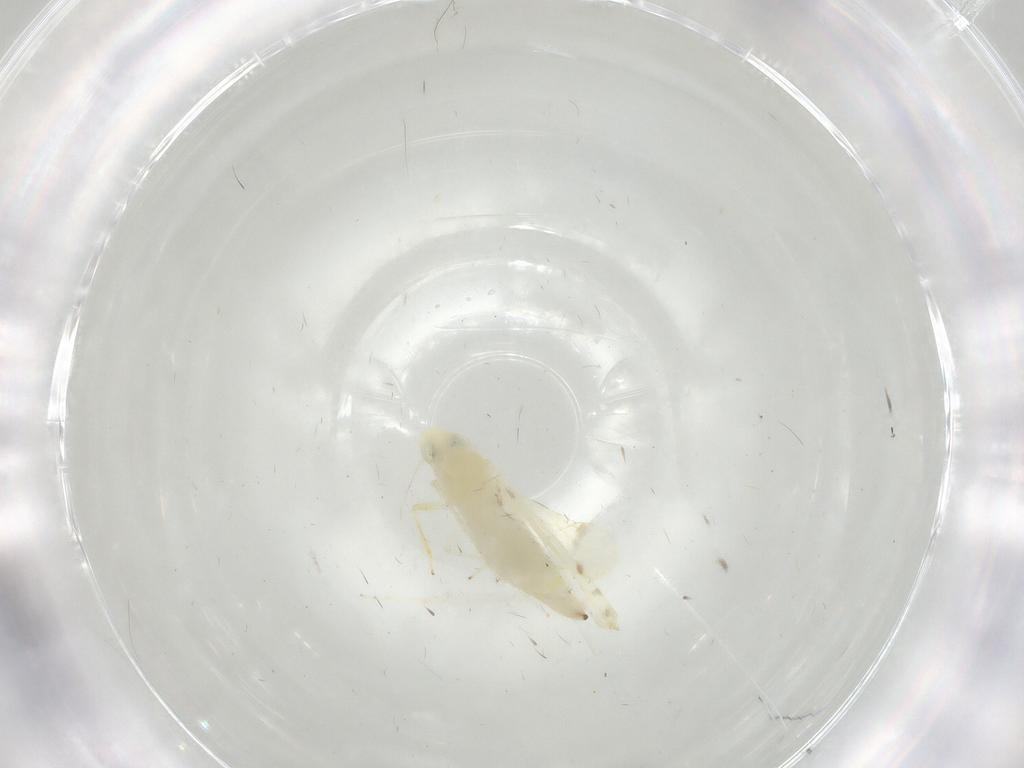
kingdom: Animalia
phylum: Arthropoda
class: Insecta
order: Hemiptera
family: Cicadellidae
